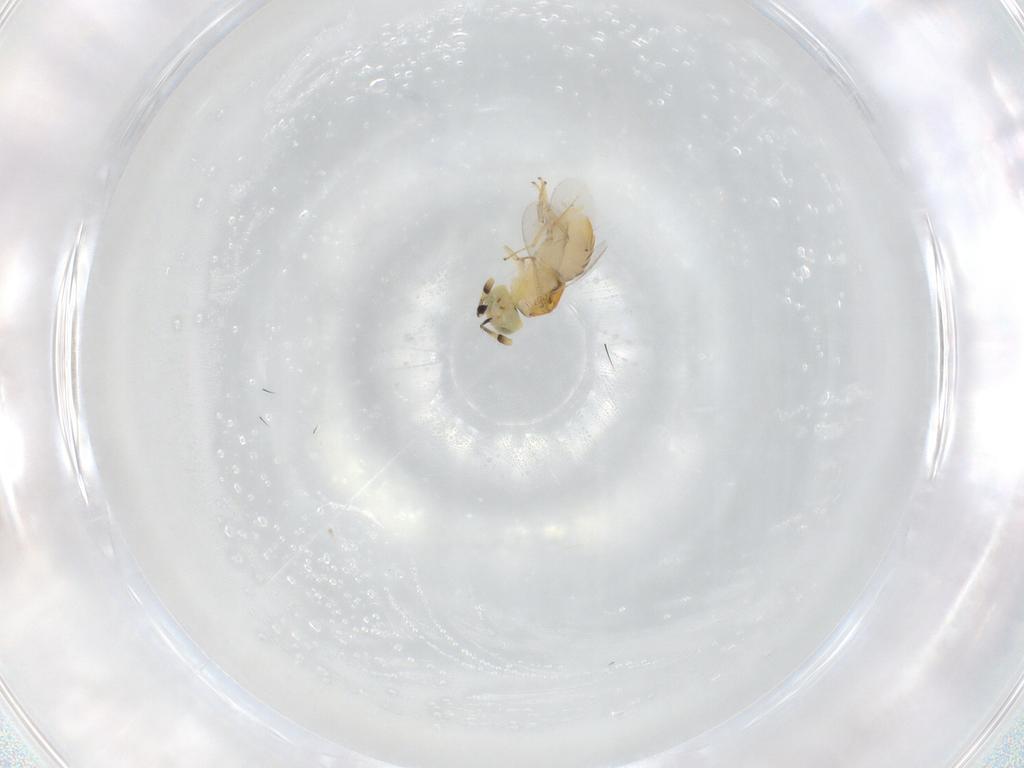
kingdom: Animalia
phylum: Arthropoda
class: Insecta
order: Hymenoptera
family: Encyrtidae
